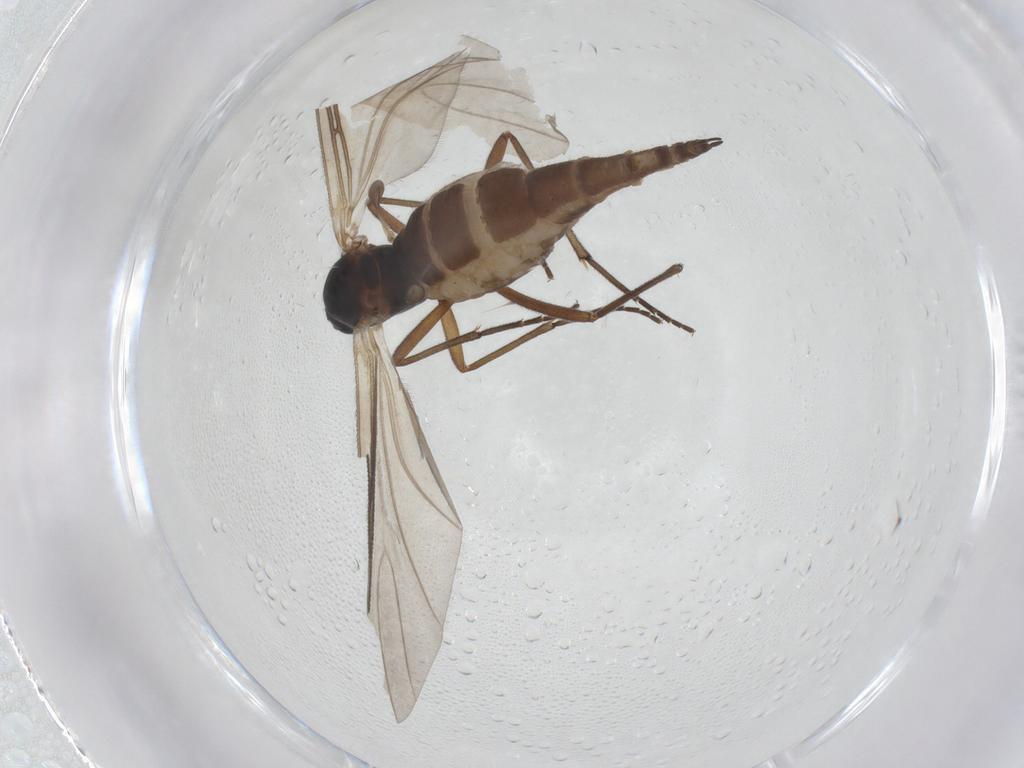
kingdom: Animalia
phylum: Arthropoda
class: Insecta
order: Diptera
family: Sciaridae
